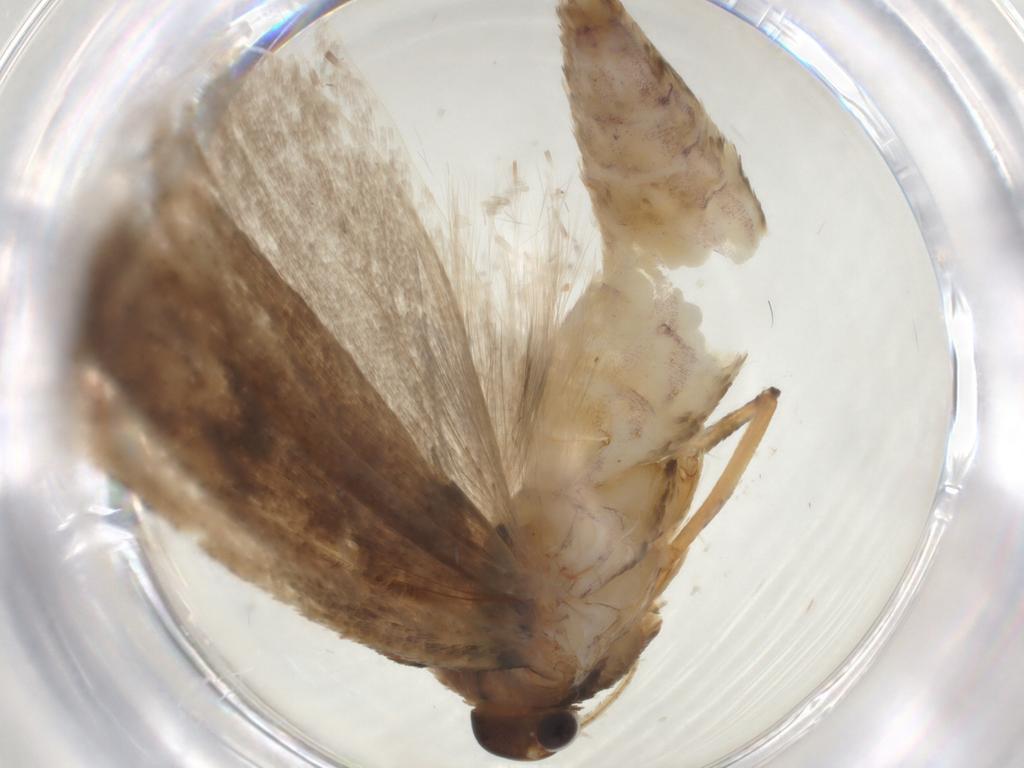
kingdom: Animalia
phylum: Arthropoda
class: Insecta
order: Lepidoptera
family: Gelechiidae
